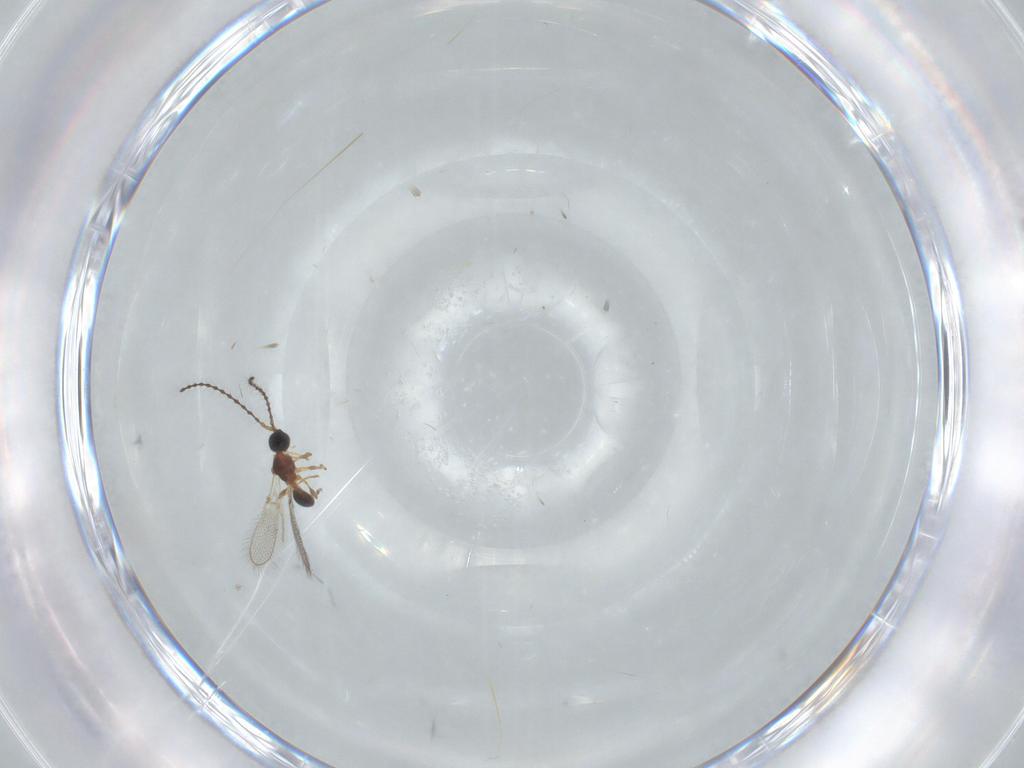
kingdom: Animalia
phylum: Arthropoda
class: Insecta
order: Hymenoptera
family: Diapriidae
